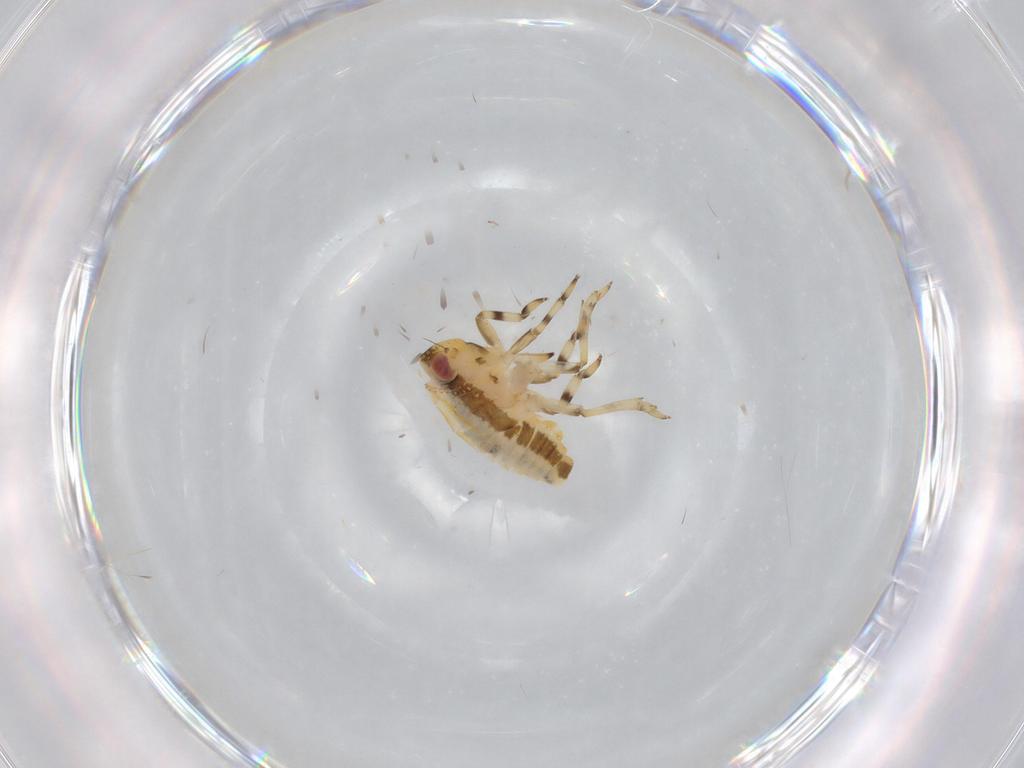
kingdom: Animalia
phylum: Arthropoda
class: Insecta
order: Hemiptera
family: Issidae
